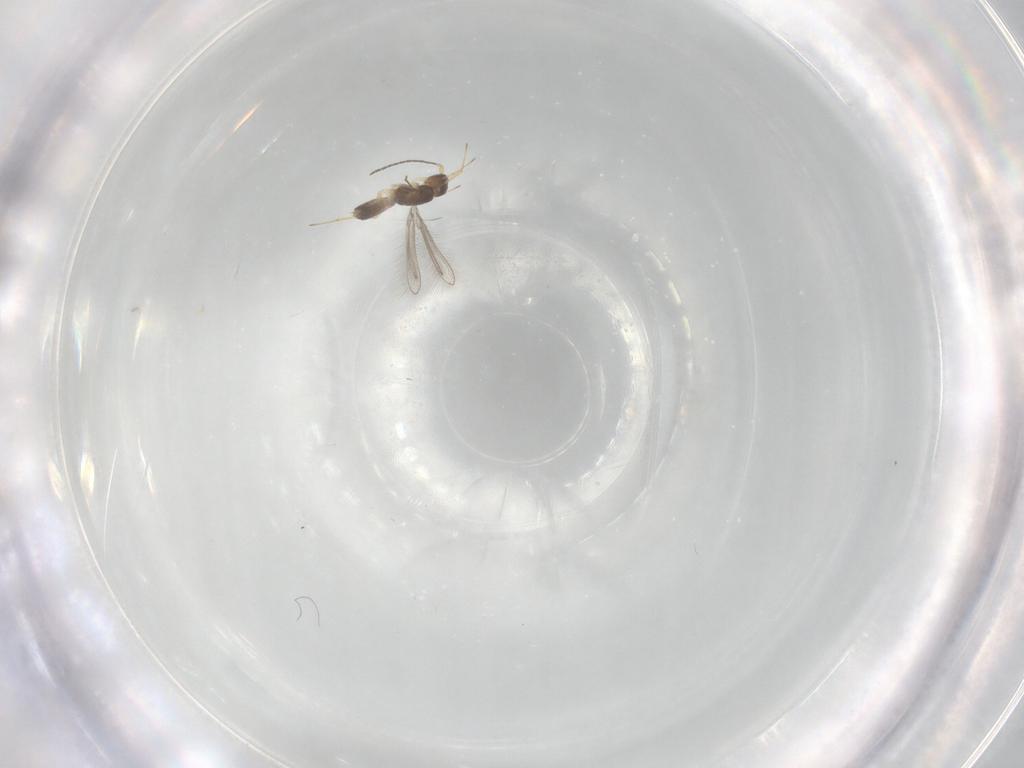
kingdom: Animalia
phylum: Arthropoda
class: Insecta
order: Hymenoptera
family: Mymaridae
